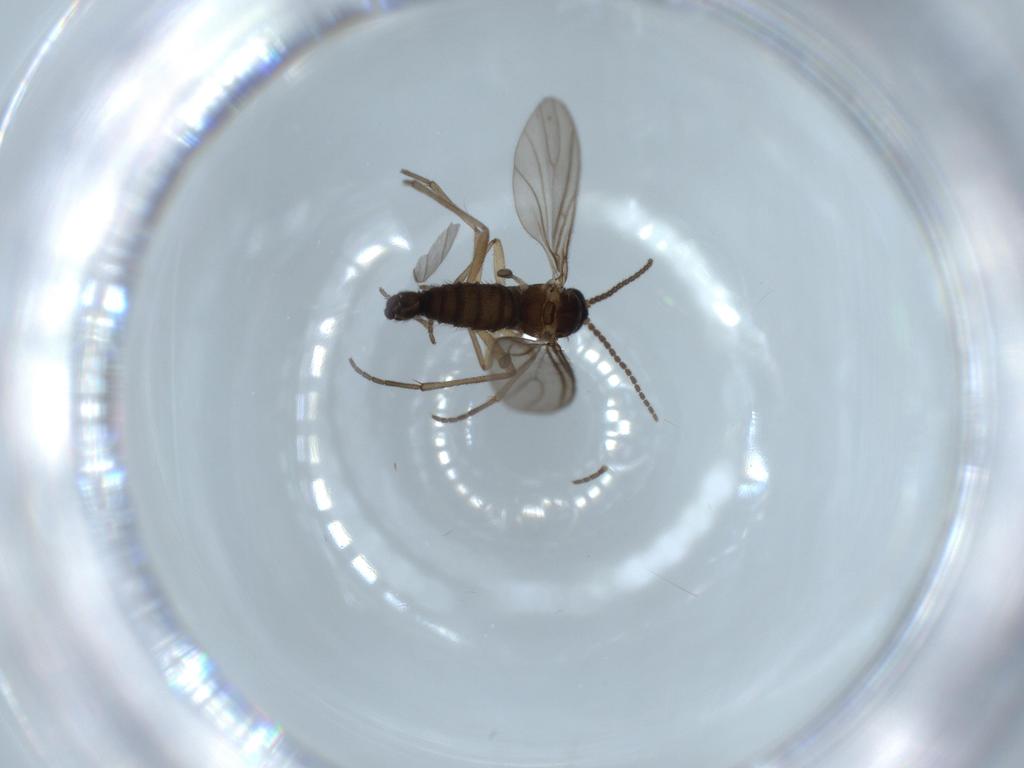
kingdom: Animalia
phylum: Arthropoda
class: Insecta
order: Diptera
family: Sciaridae
